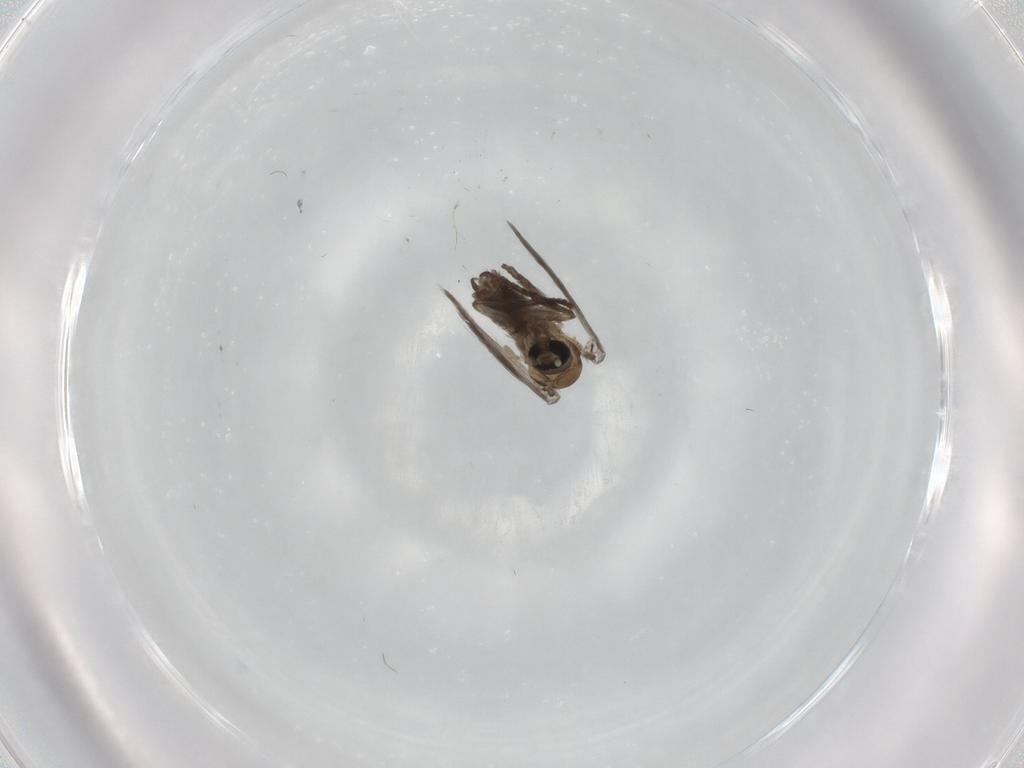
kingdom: Animalia
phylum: Arthropoda
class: Insecta
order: Diptera
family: Psychodidae
